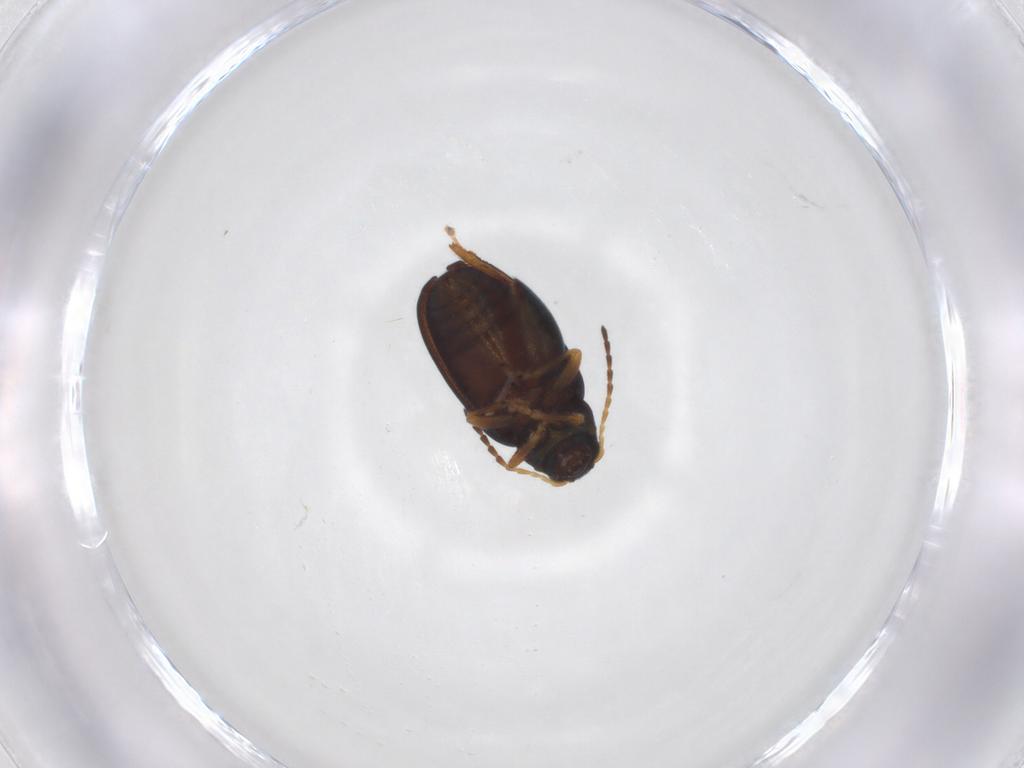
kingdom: Animalia
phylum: Arthropoda
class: Insecta
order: Coleoptera
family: Chrysomelidae
